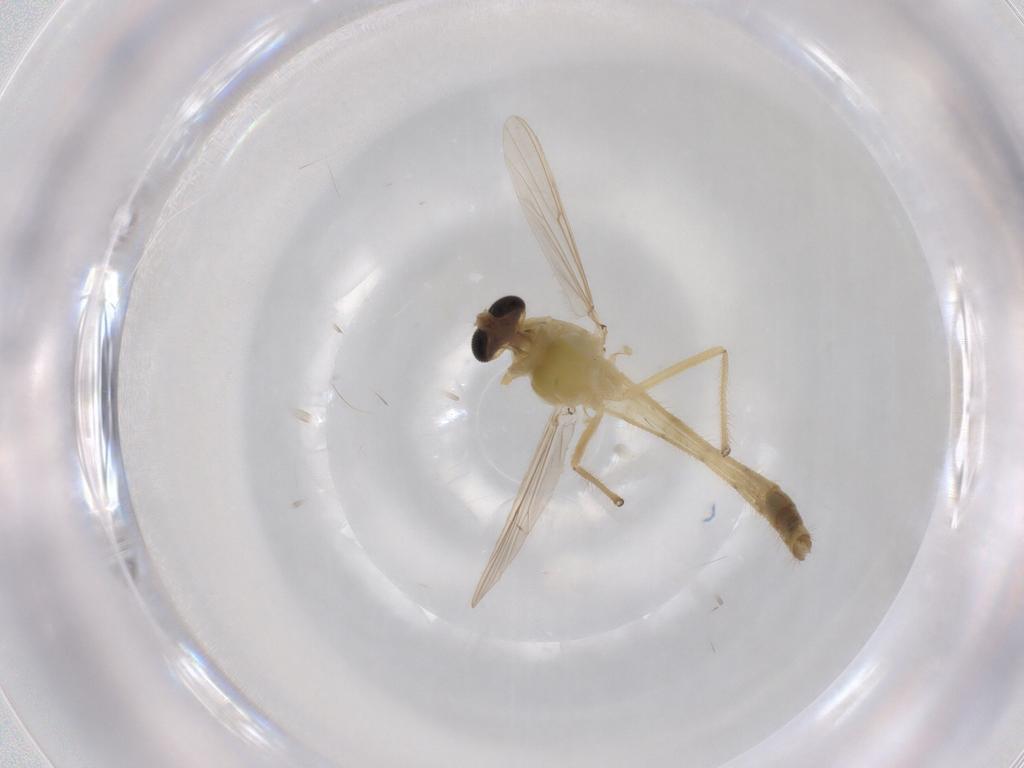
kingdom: Animalia
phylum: Arthropoda
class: Insecta
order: Diptera
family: Chironomidae
